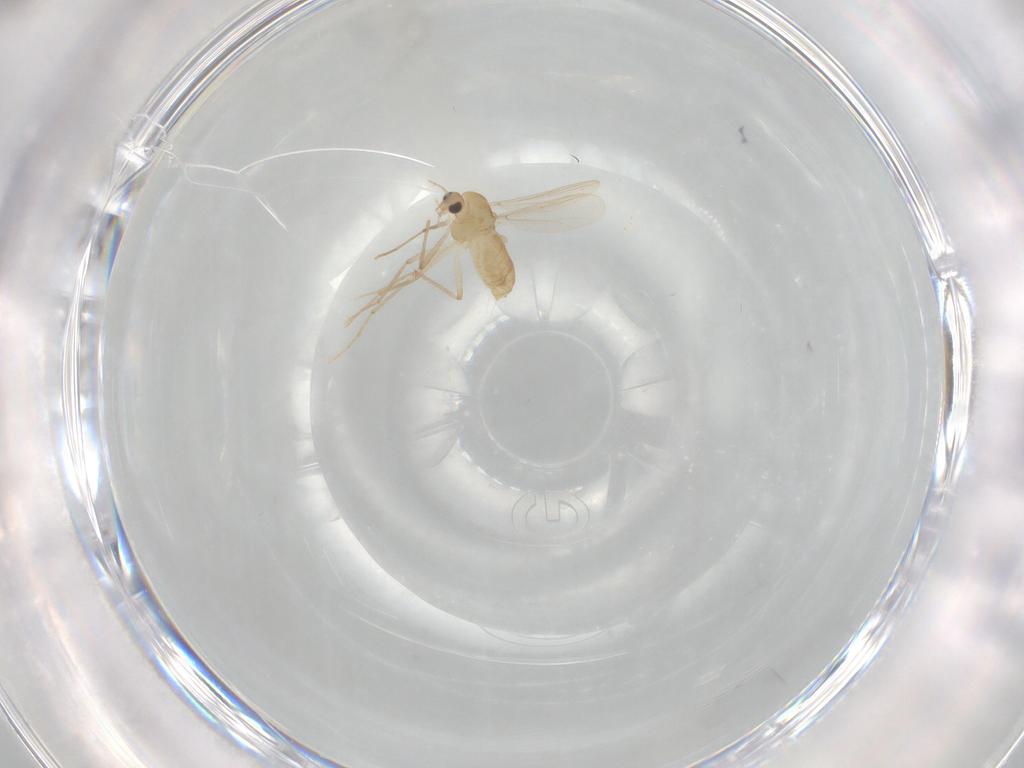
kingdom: Animalia
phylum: Arthropoda
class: Insecta
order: Diptera
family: Chironomidae
